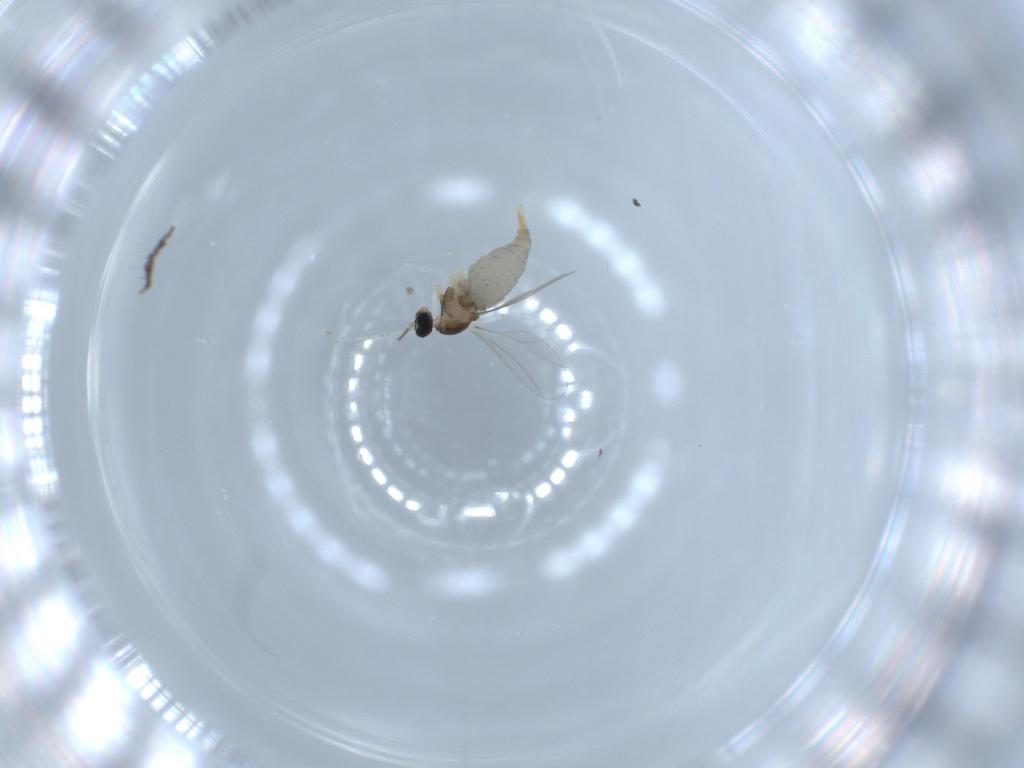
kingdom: Animalia
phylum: Arthropoda
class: Insecta
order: Diptera
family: Cecidomyiidae
